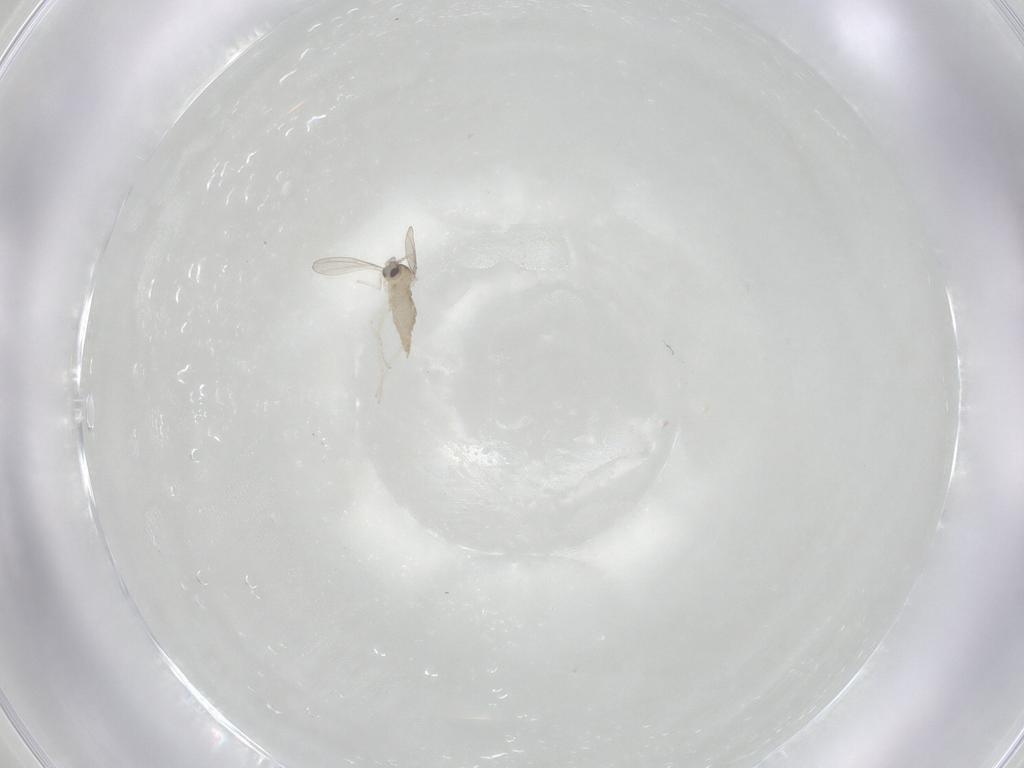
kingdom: Animalia
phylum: Arthropoda
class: Insecta
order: Diptera
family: Cecidomyiidae
